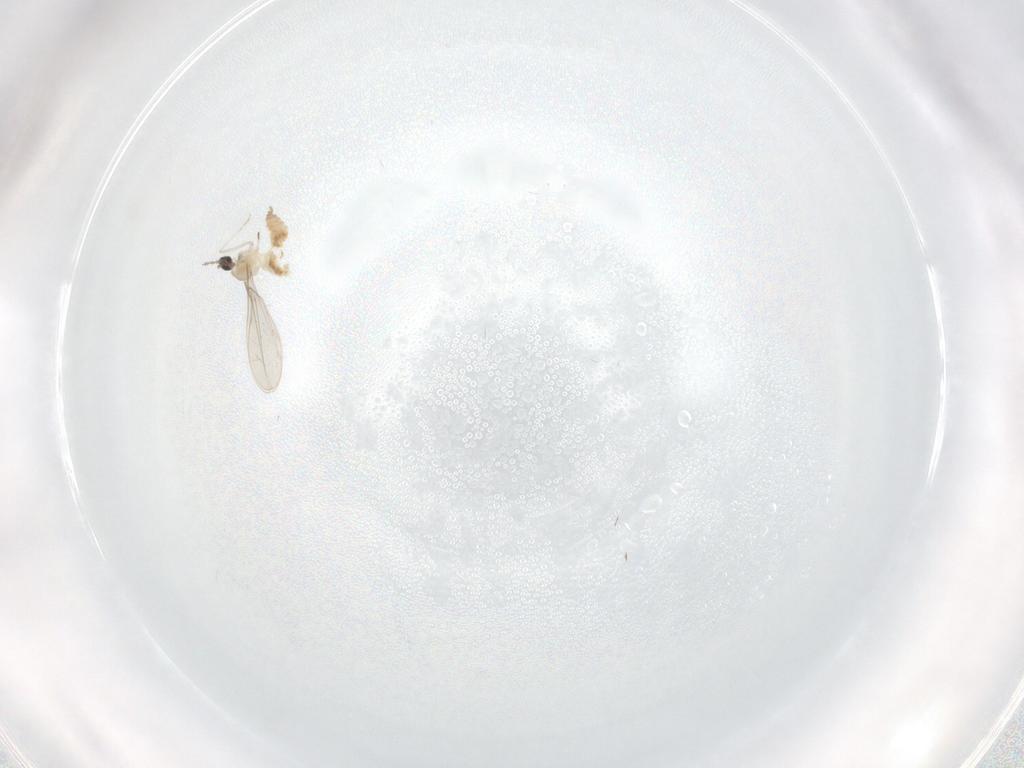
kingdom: Animalia
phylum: Arthropoda
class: Insecta
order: Diptera
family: Cecidomyiidae
